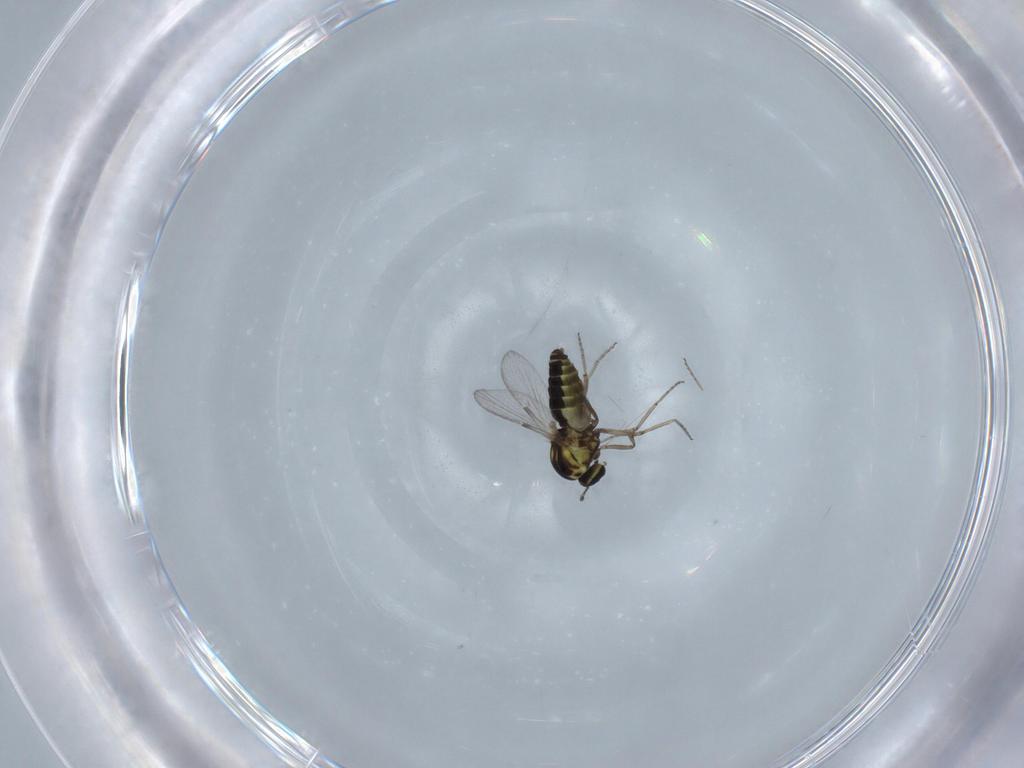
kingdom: Animalia
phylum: Arthropoda
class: Insecta
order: Diptera
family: Ceratopogonidae
